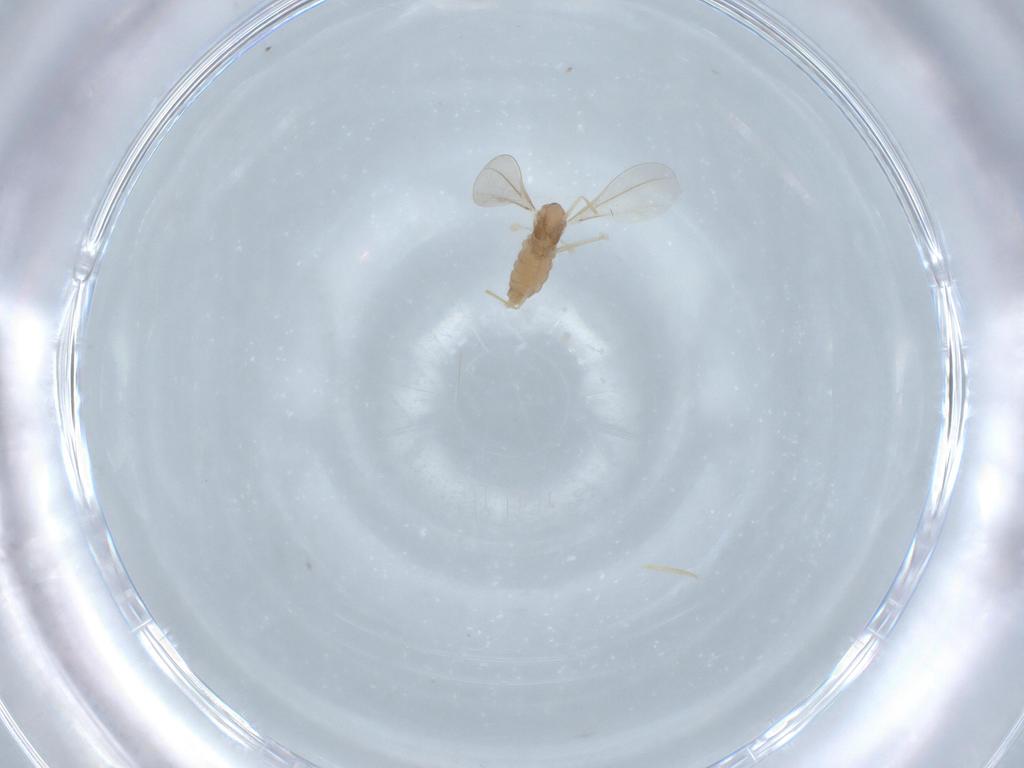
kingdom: Animalia
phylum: Arthropoda
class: Insecta
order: Diptera
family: Cecidomyiidae
